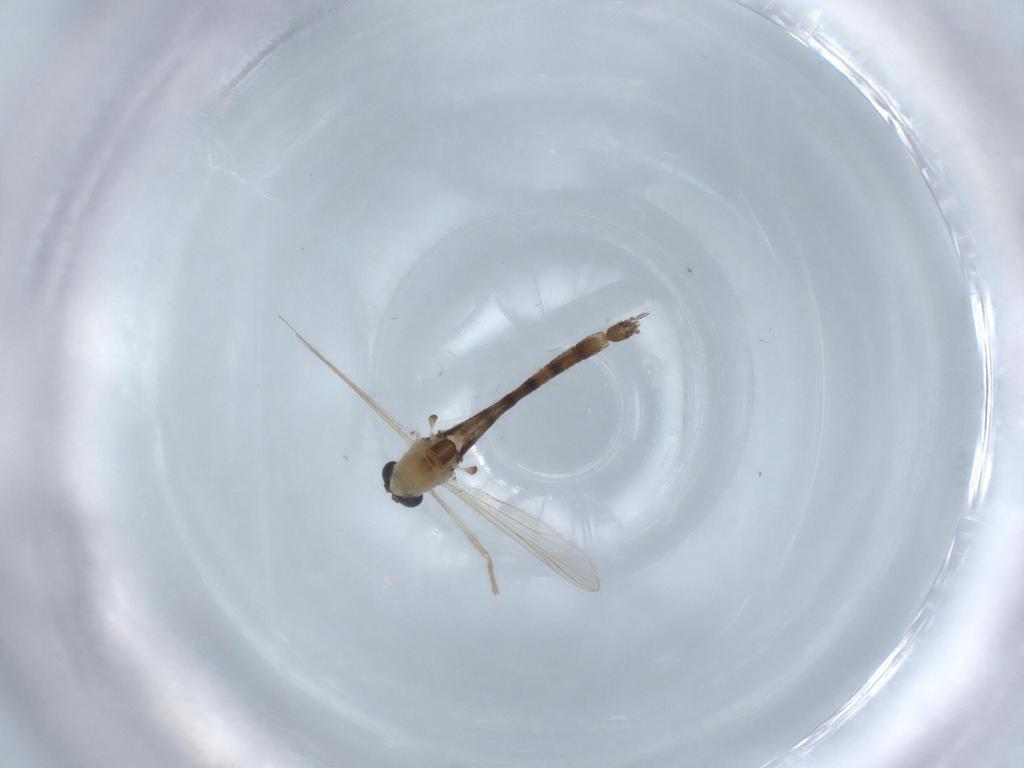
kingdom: Animalia
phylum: Arthropoda
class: Insecta
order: Diptera
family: Chironomidae
